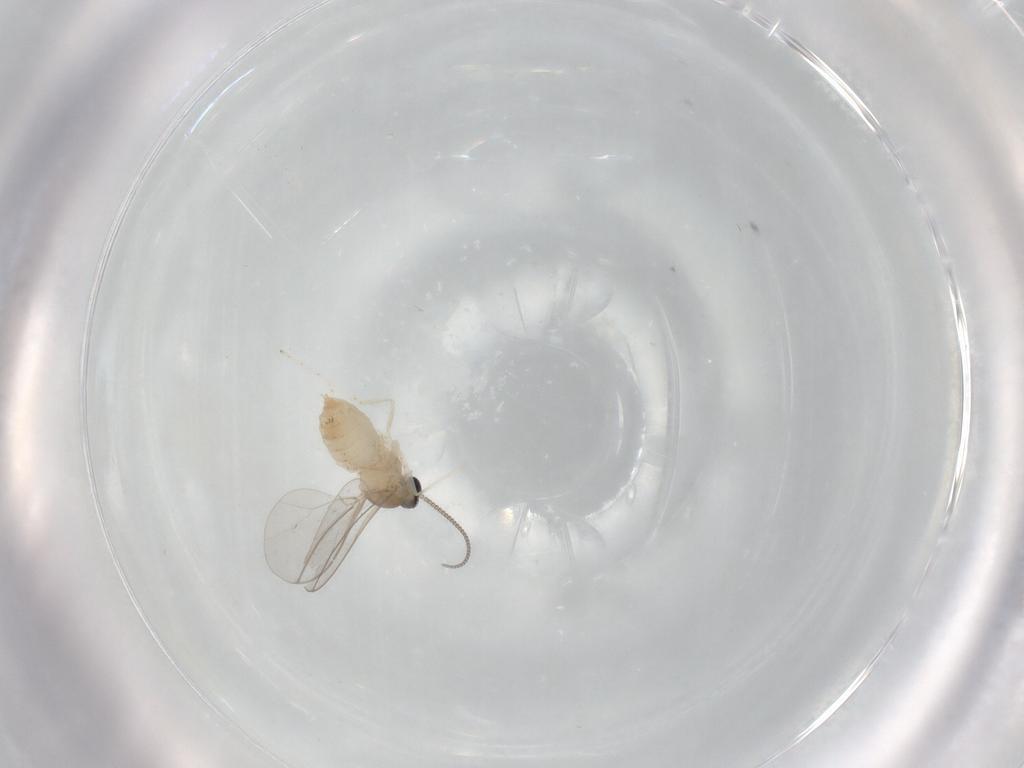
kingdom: Animalia
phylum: Arthropoda
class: Insecta
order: Diptera
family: Cecidomyiidae
